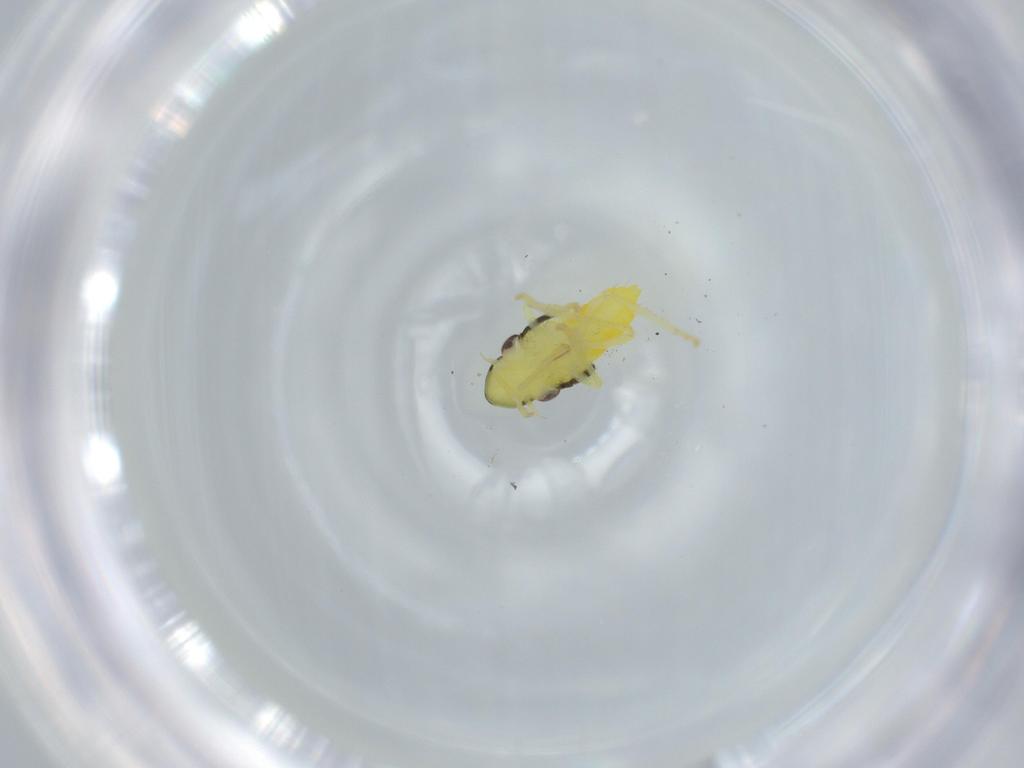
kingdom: Animalia
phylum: Arthropoda
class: Insecta
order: Hemiptera
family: Cicadellidae
